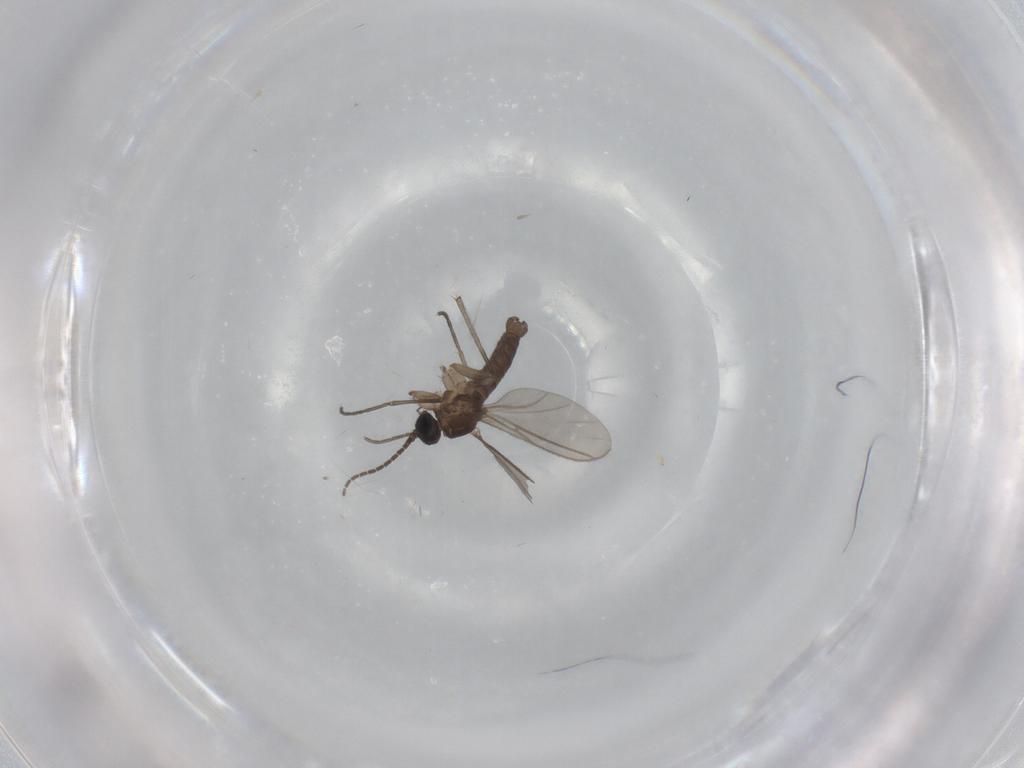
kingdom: Animalia
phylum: Arthropoda
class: Insecta
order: Diptera
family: Sciaridae
